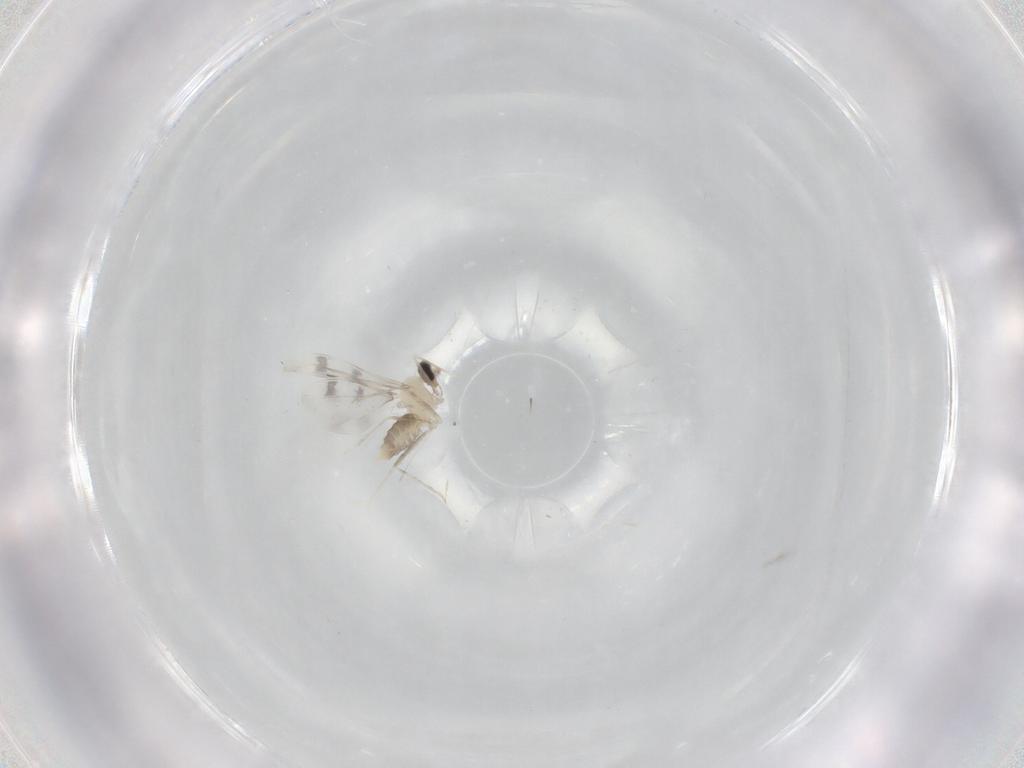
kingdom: Animalia
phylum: Arthropoda
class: Insecta
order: Diptera
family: Cecidomyiidae
